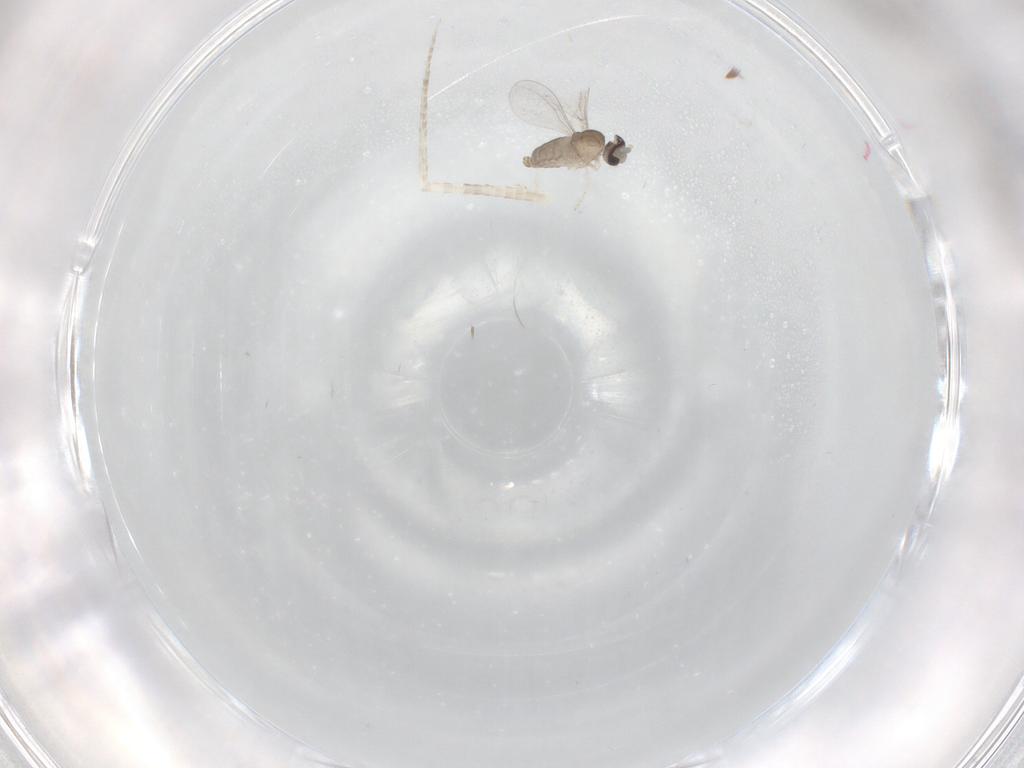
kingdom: Animalia
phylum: Arthropoda
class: Insecta
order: Diptera
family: Cecidomyiidae
